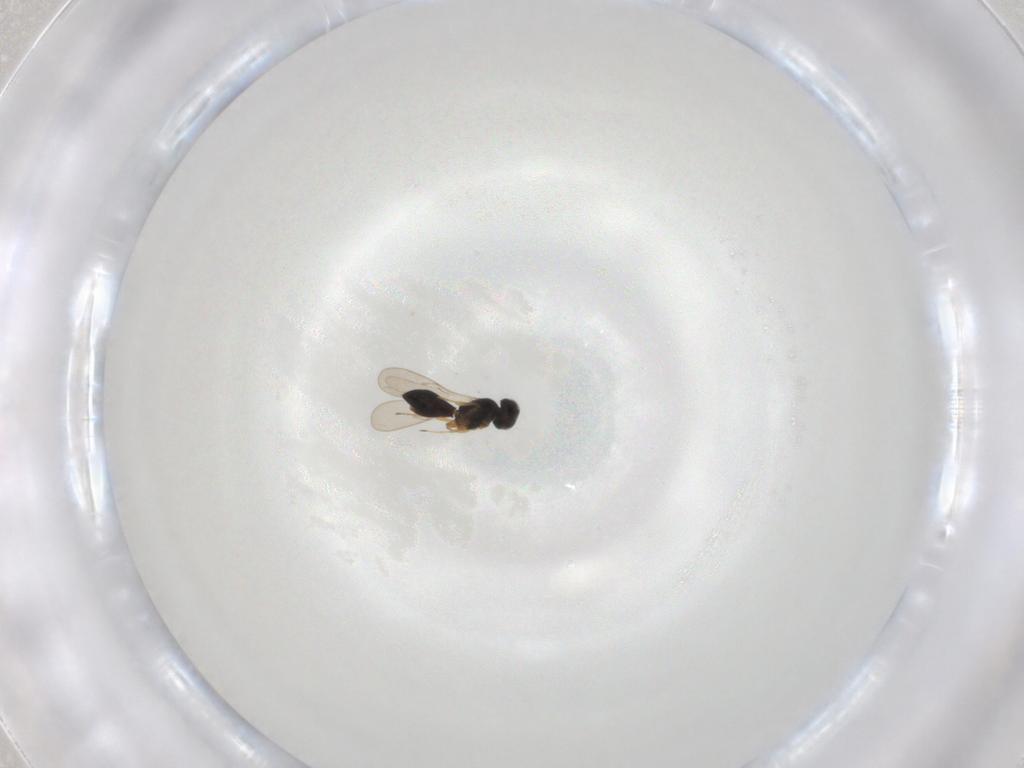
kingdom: Animalia
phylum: Arthropoda
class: Insecta
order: Hymenoptera
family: Scelionidae
